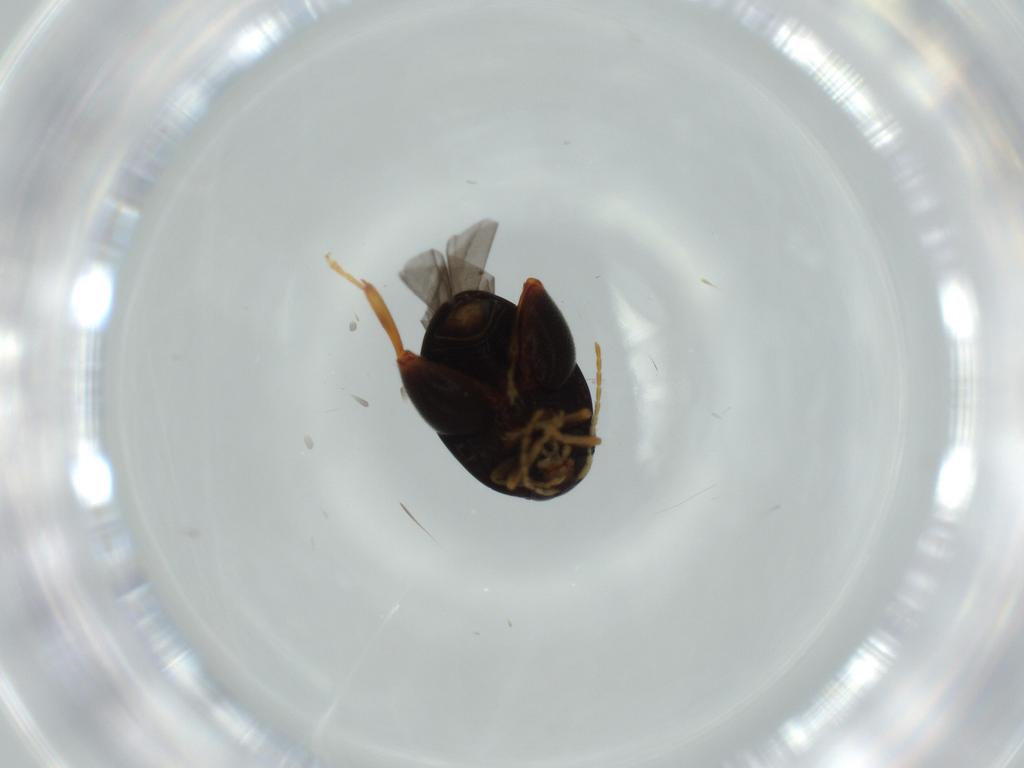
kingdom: Animalia
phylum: Arthropoda
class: Insecta
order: Coleoptera
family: Chrysomelidae
